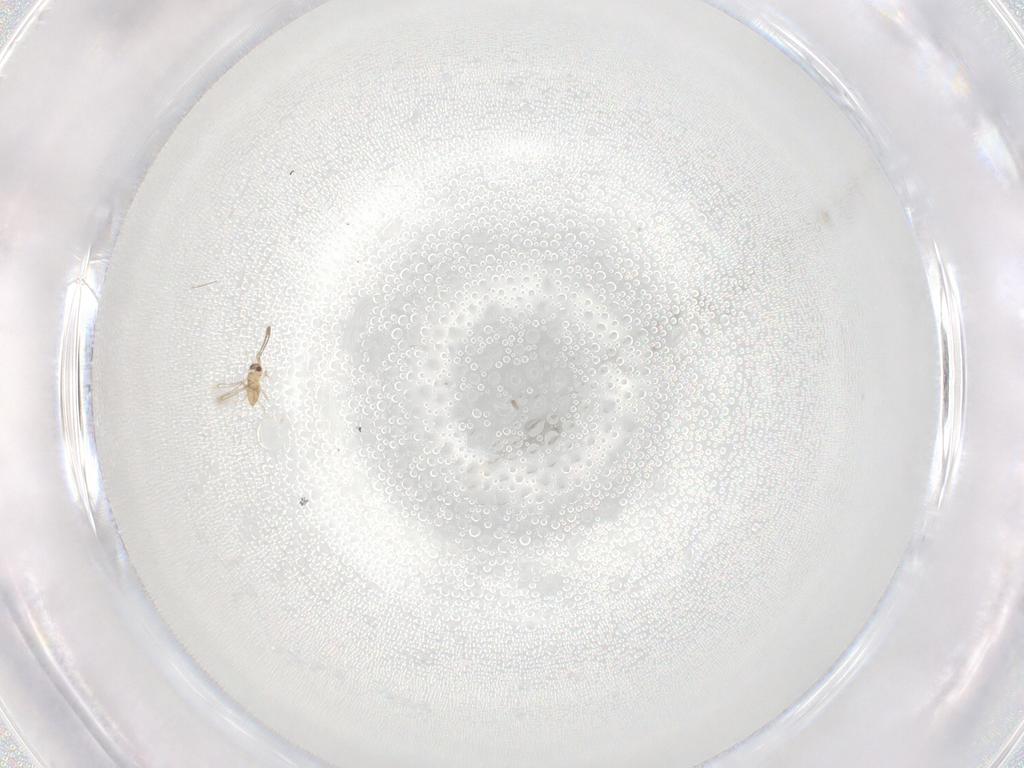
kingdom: Animalia
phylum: Arthropoda
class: Insecta
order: Hymenoptera
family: Mymaridae
